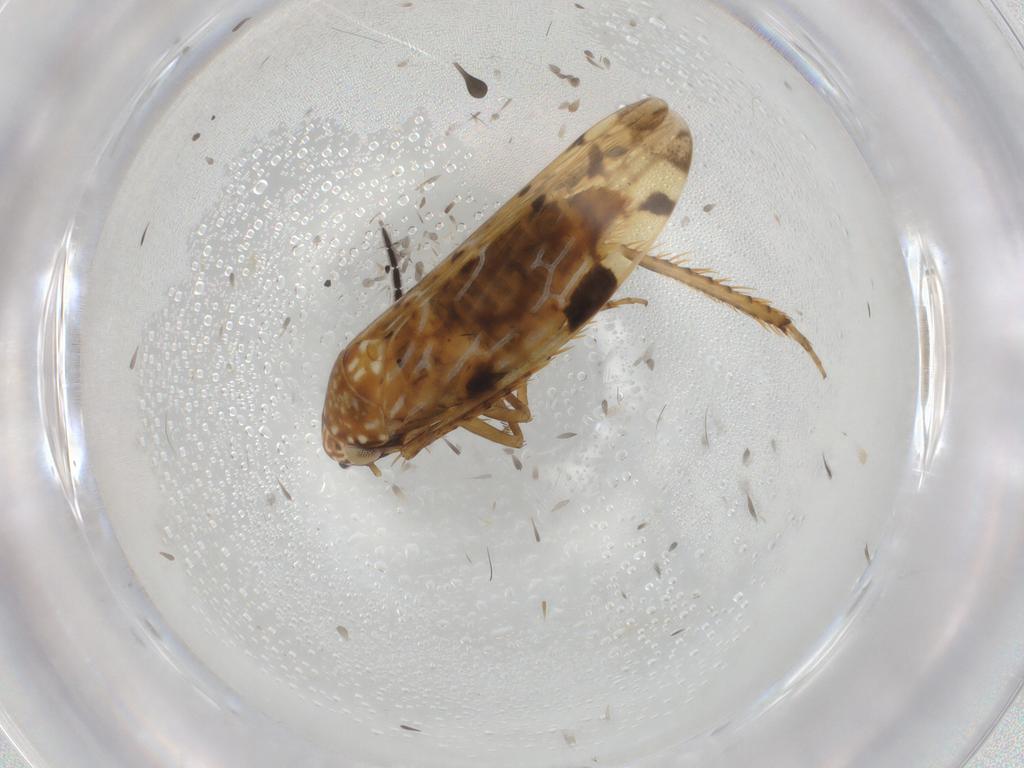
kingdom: Animalia
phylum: Arthropoda
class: Insecta
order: Hemiptera
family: Cicadellidae
